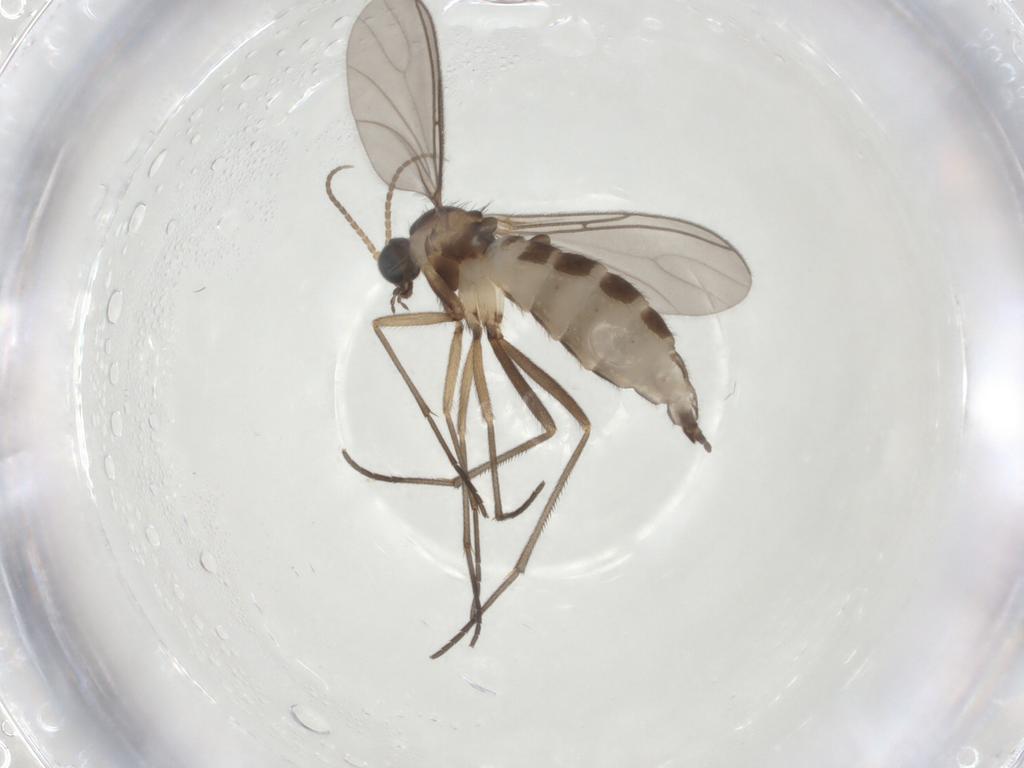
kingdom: Animalia
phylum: Arthropoda
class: Insecta
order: Diptera
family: Sciaridae
